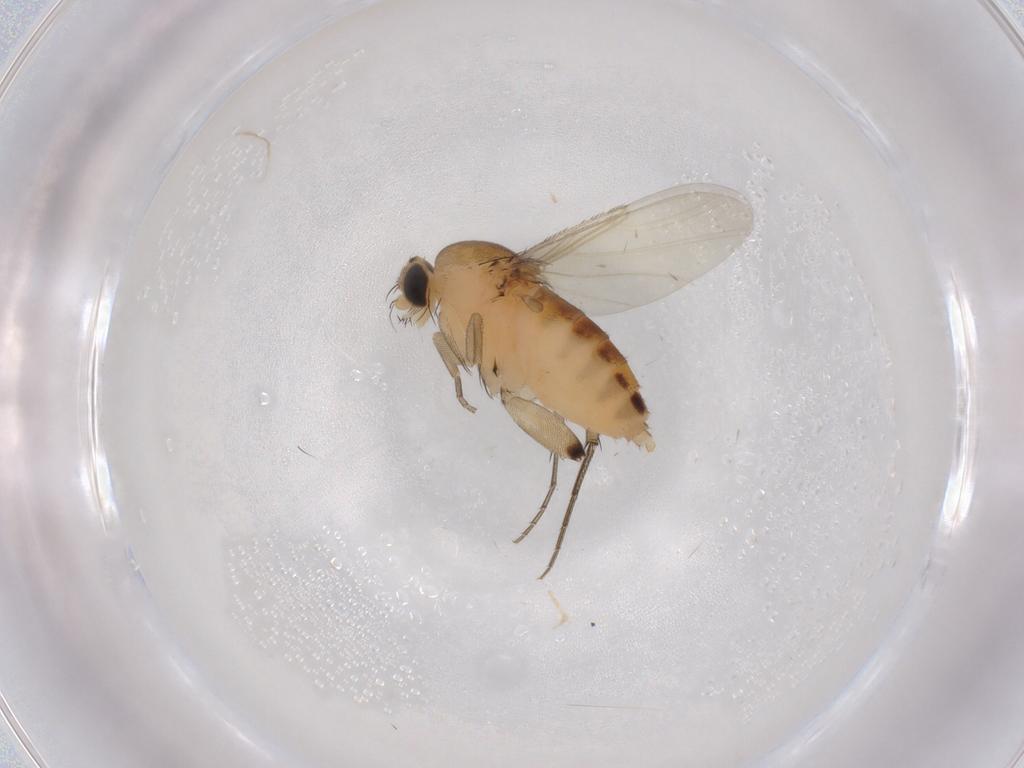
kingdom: Animalia
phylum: Arthropoda
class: Insecta
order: Diptera
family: Phoridae
